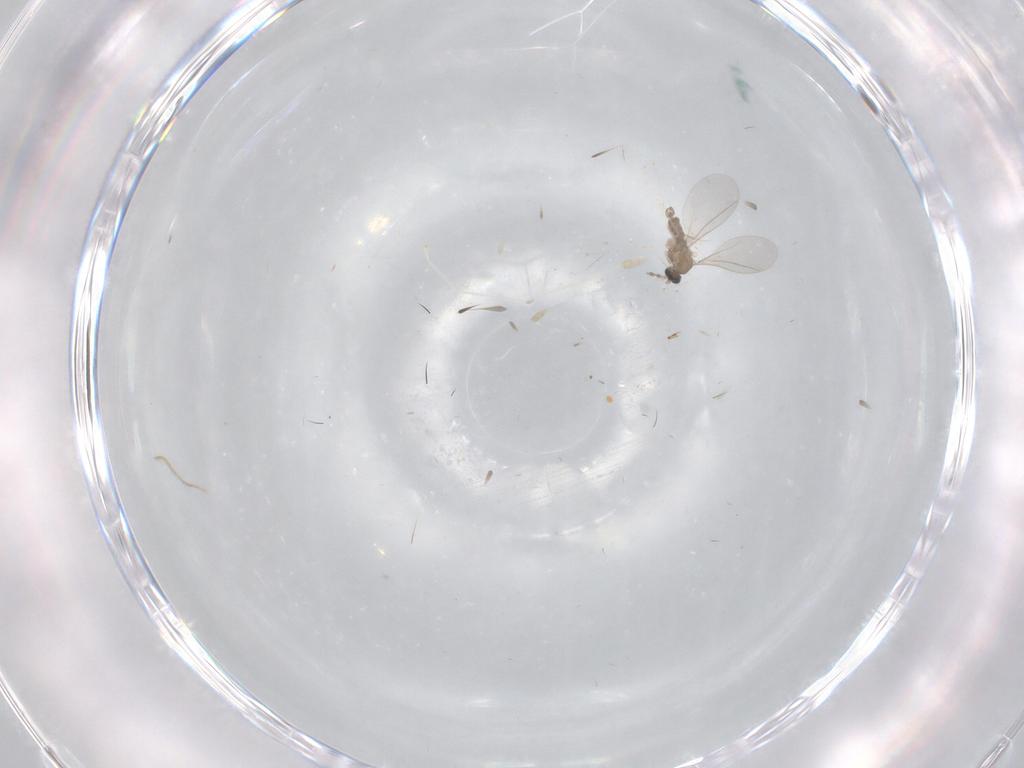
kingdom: Animalia
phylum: Arthropoda
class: Insecta
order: Diptera
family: Cecidomyiidae
